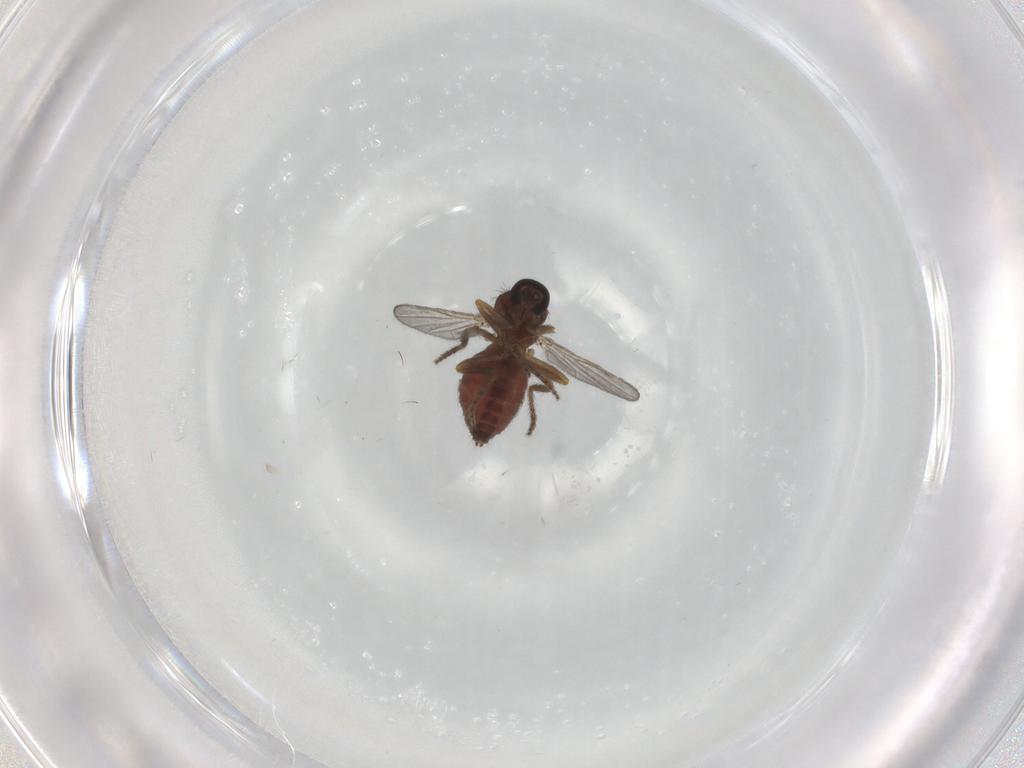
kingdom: Animalia
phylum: Arthropoda
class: Insecta
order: Diptera
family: Ceratopogonidae
